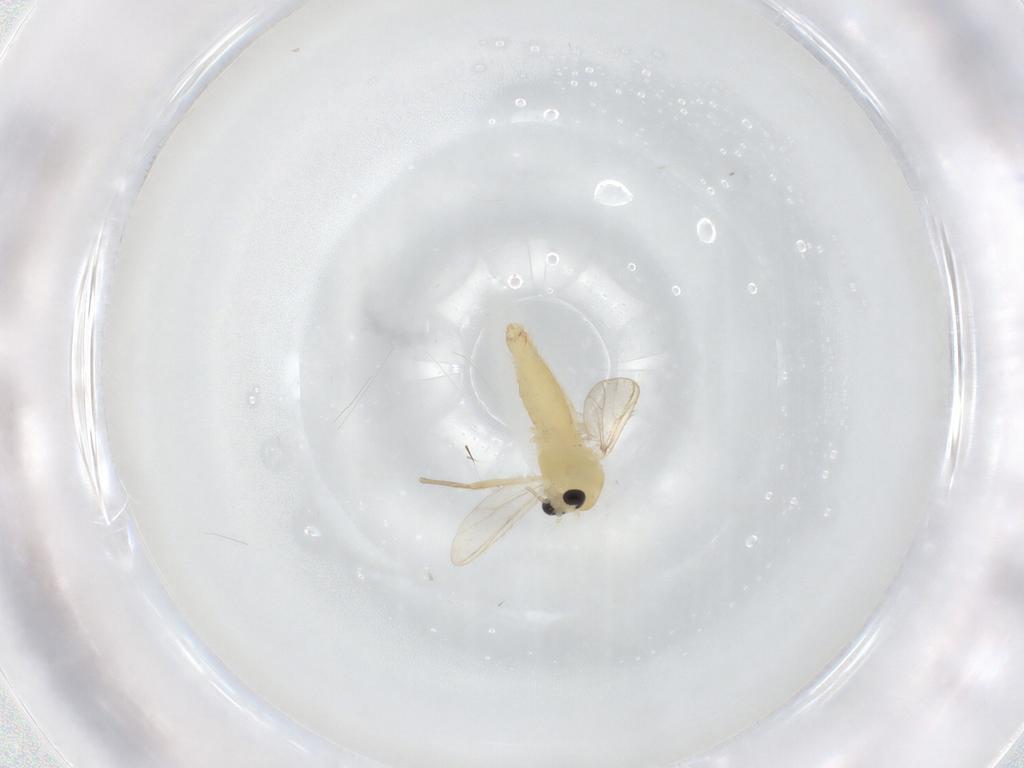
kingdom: Animalia
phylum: Arthropoda
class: Insecta
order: Diptera
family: Chironomidae
